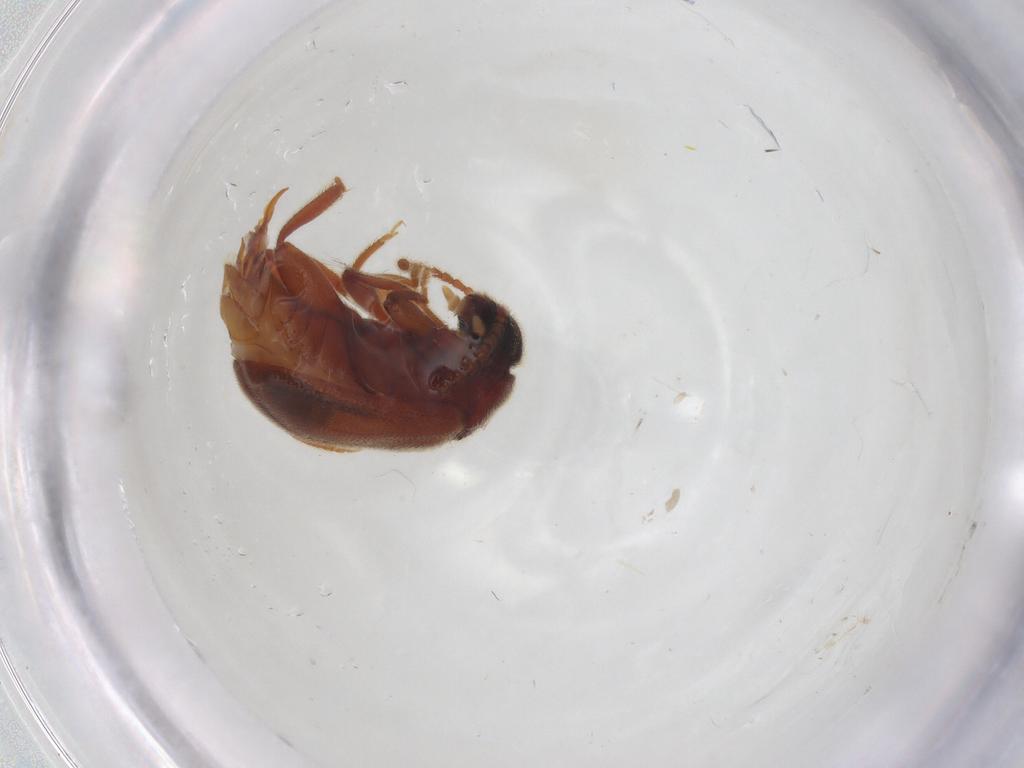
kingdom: Animalia
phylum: Arthropoda
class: Insecta
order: Coleoptera
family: Aderidae
